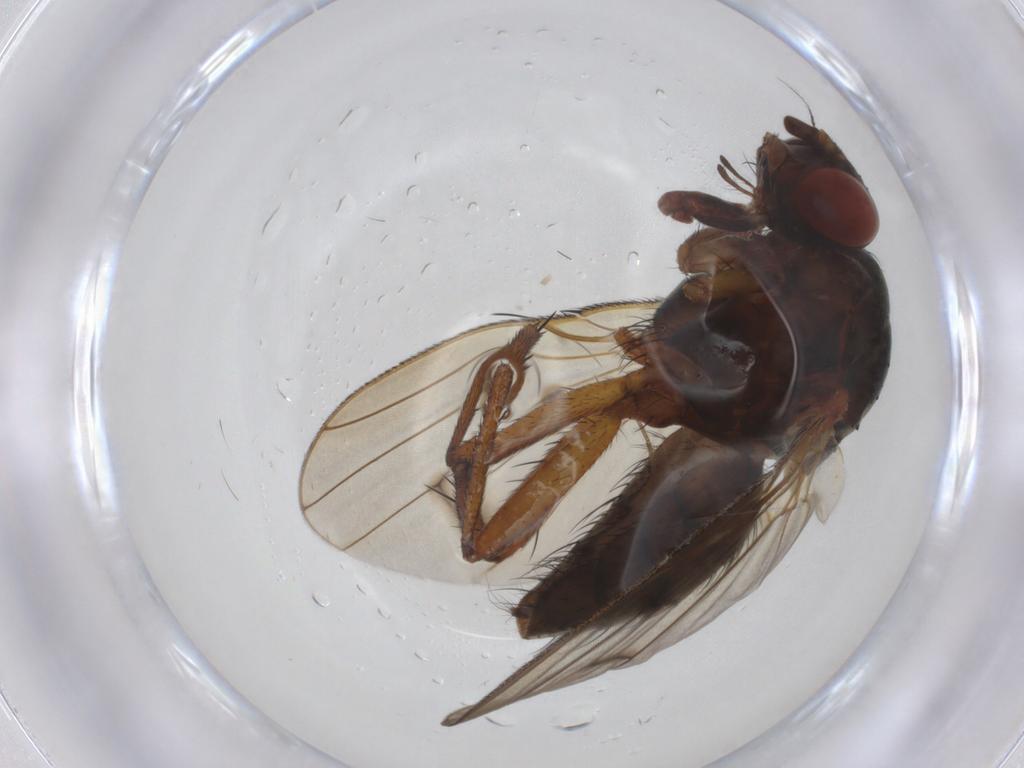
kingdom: Animalia
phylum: Arthropoda
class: Insecta
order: Diptera
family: Anthomyiidae
